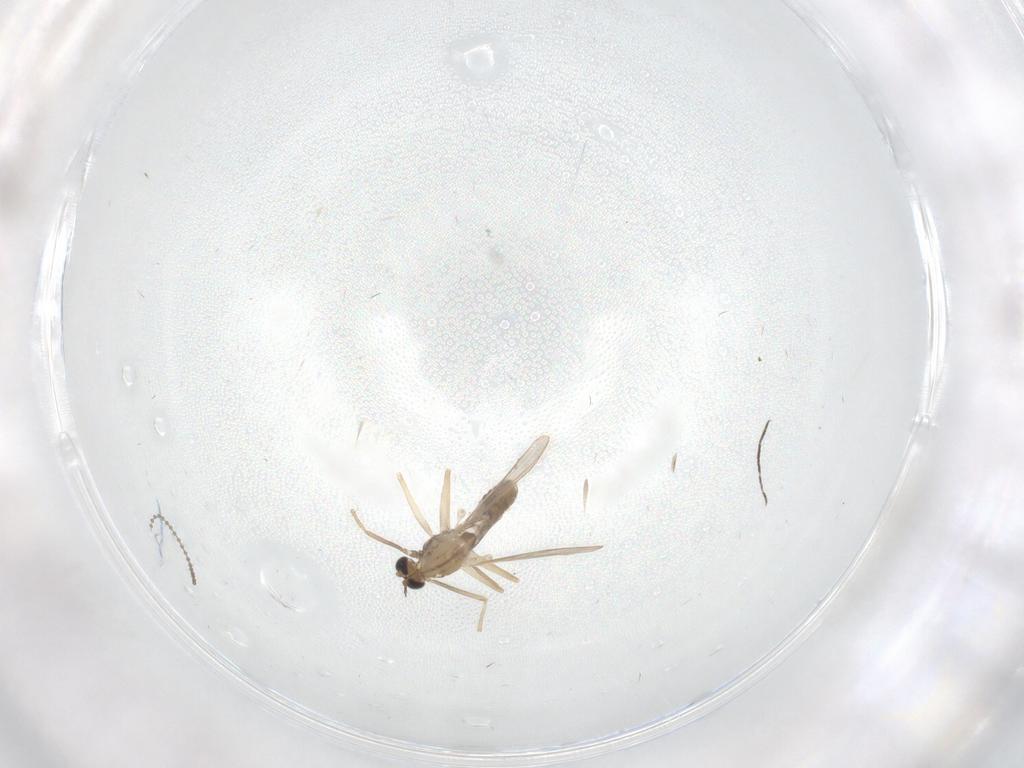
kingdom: Animalia
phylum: Arthropoda
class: Insecta
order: Diptera
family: Chironomidae
